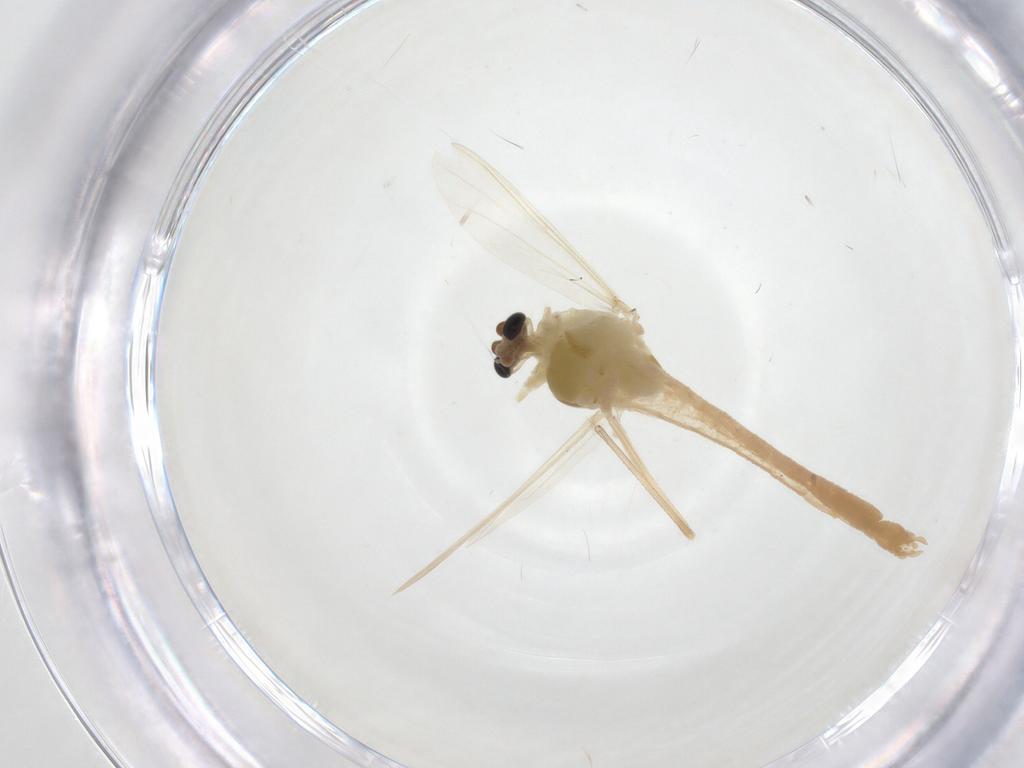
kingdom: Animalia
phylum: Arthropoda
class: Insecta
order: Diptera
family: Chironomidae
